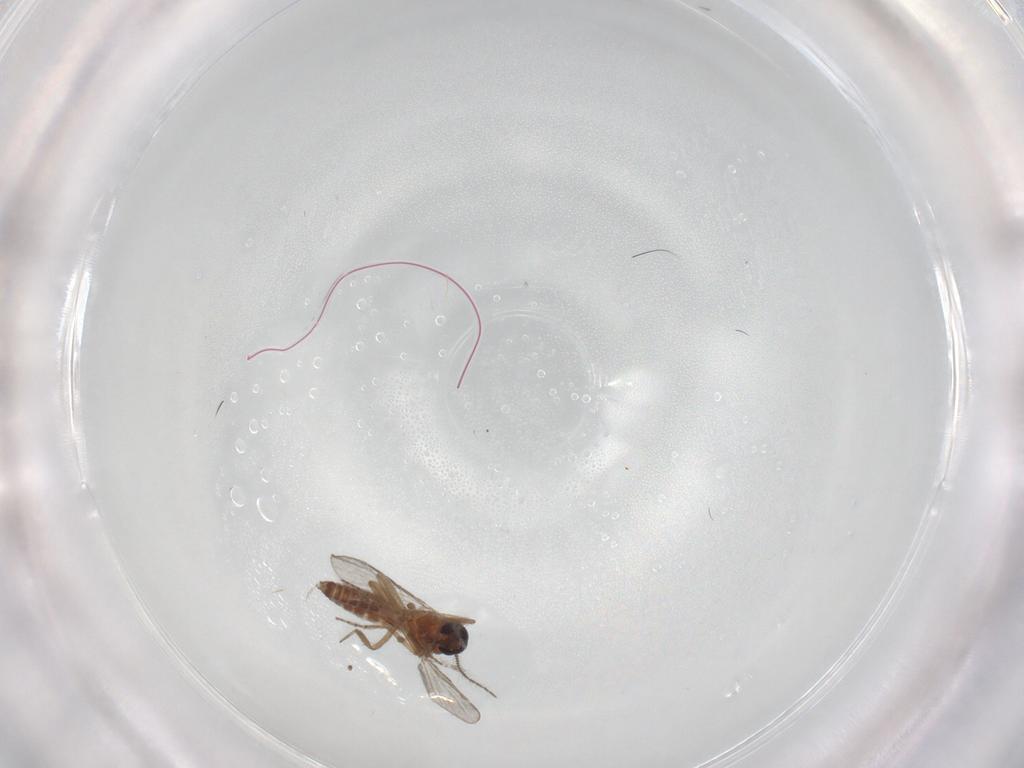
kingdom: Animalia
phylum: Arthropoda
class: Insecta
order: Diptera
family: Ceratopogonidae
